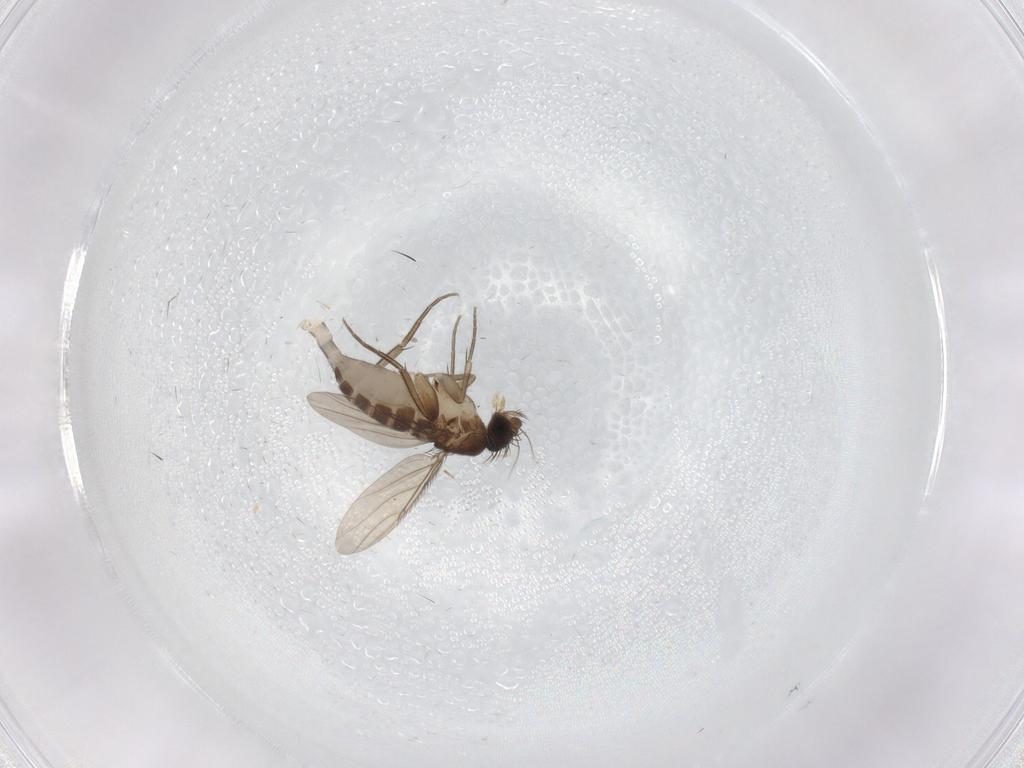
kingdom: Animalia
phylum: Arthropoda
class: Insecta
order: Diptera
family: Phoridae
